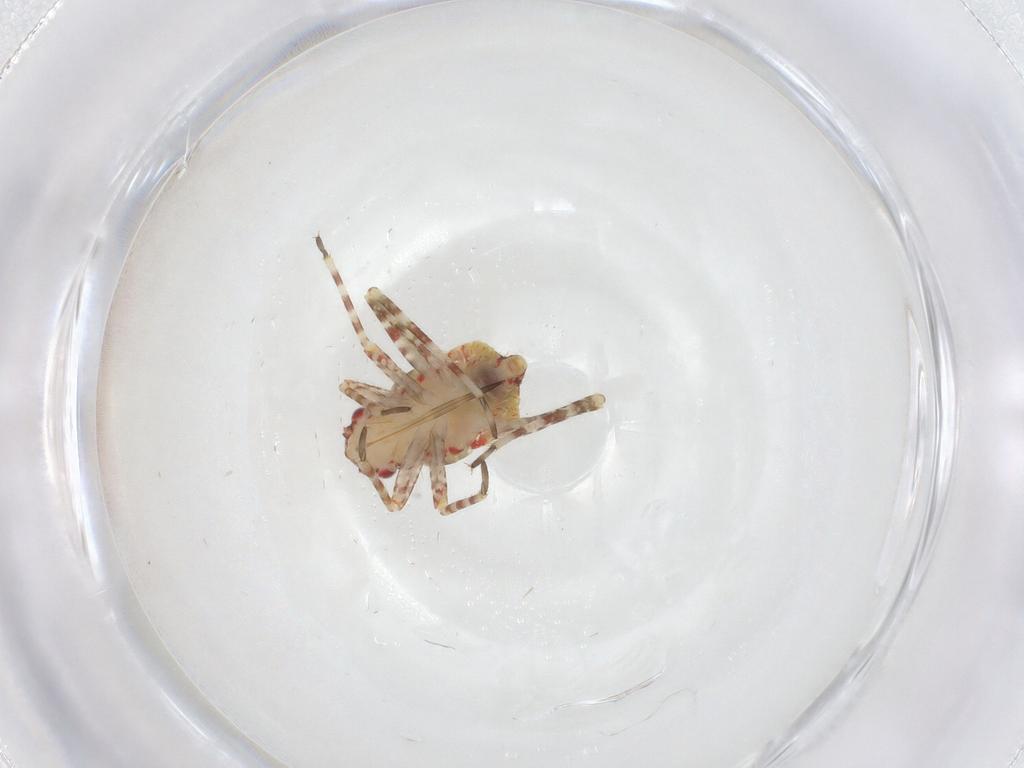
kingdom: Animalia
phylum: Arthropoda
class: Insecta
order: Hemiptera
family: Miridae
